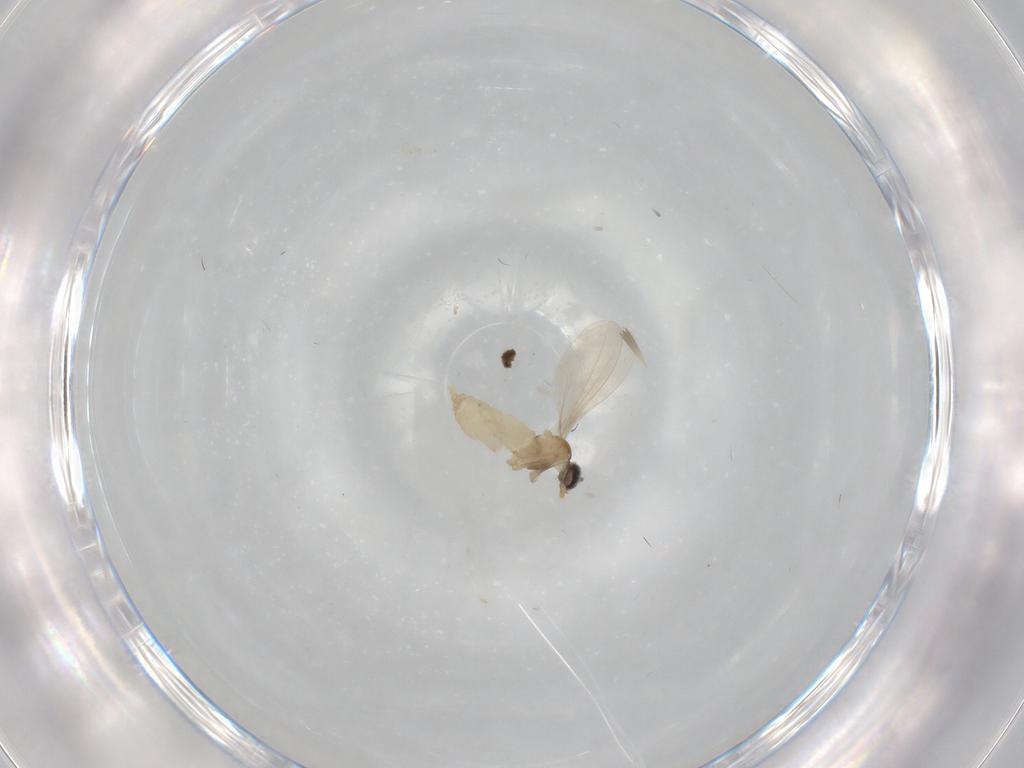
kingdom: Animalia
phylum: Arthropoda
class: Insecta
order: Diptera
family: Cecidomyiidae
